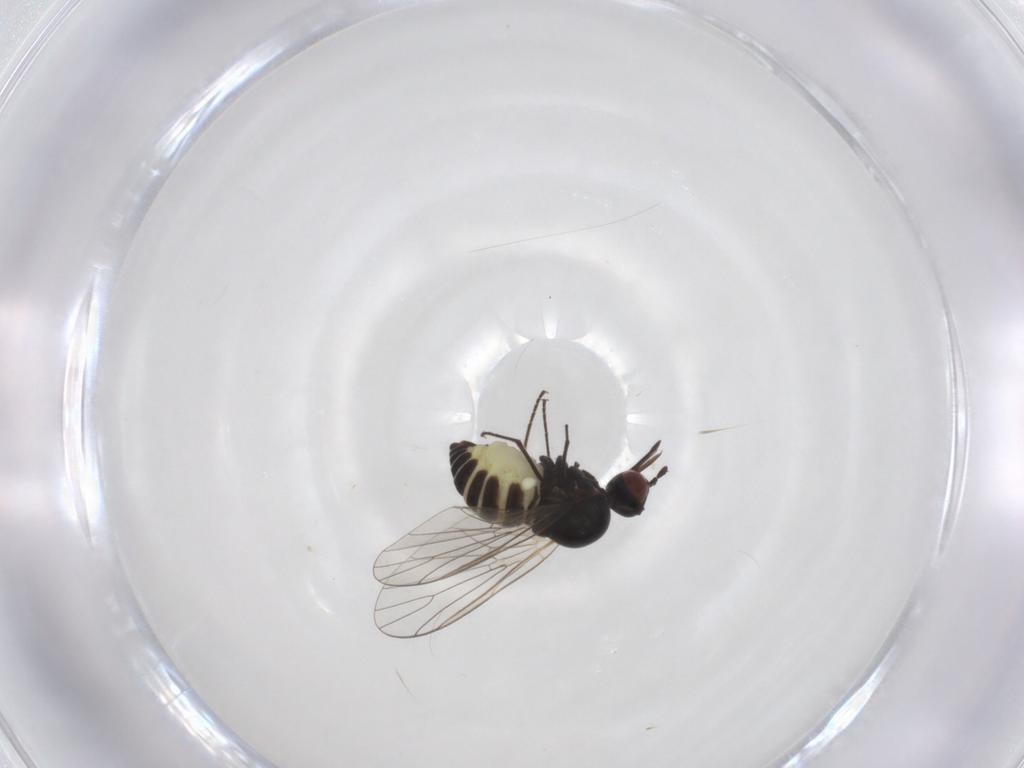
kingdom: Animalia
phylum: Arthropoda
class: Insecta
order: Diptera
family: Bombyliidae
